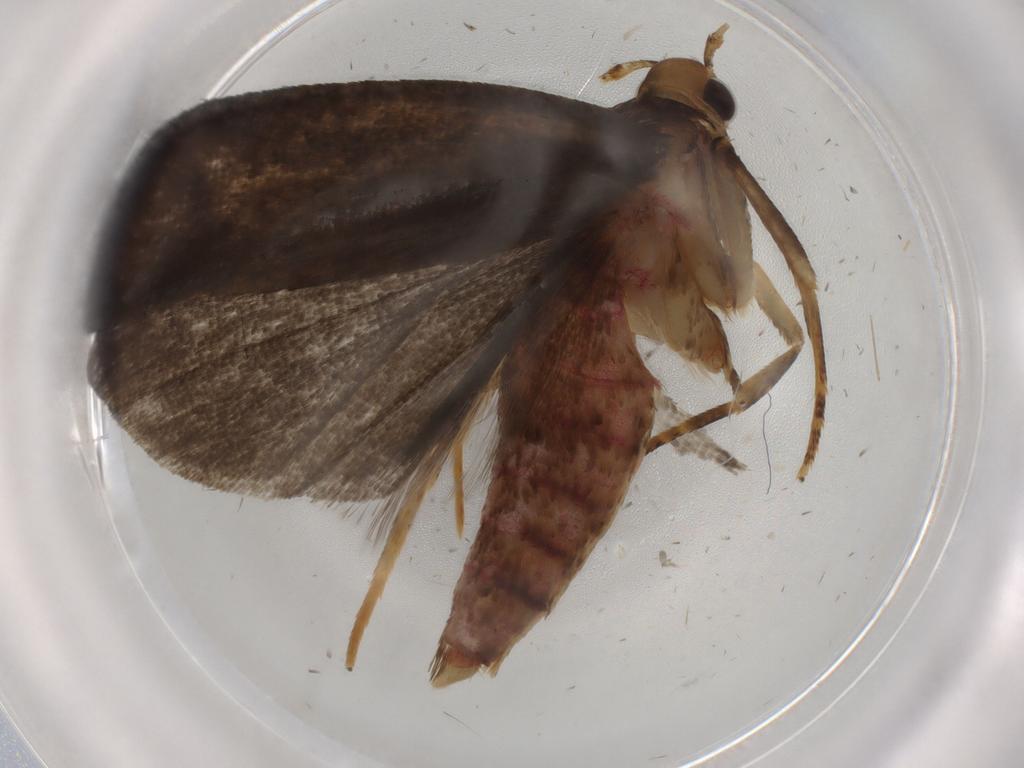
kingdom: Animalia
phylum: Arthropoda
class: Insecta
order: Lepidoptera
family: Autostichidae
